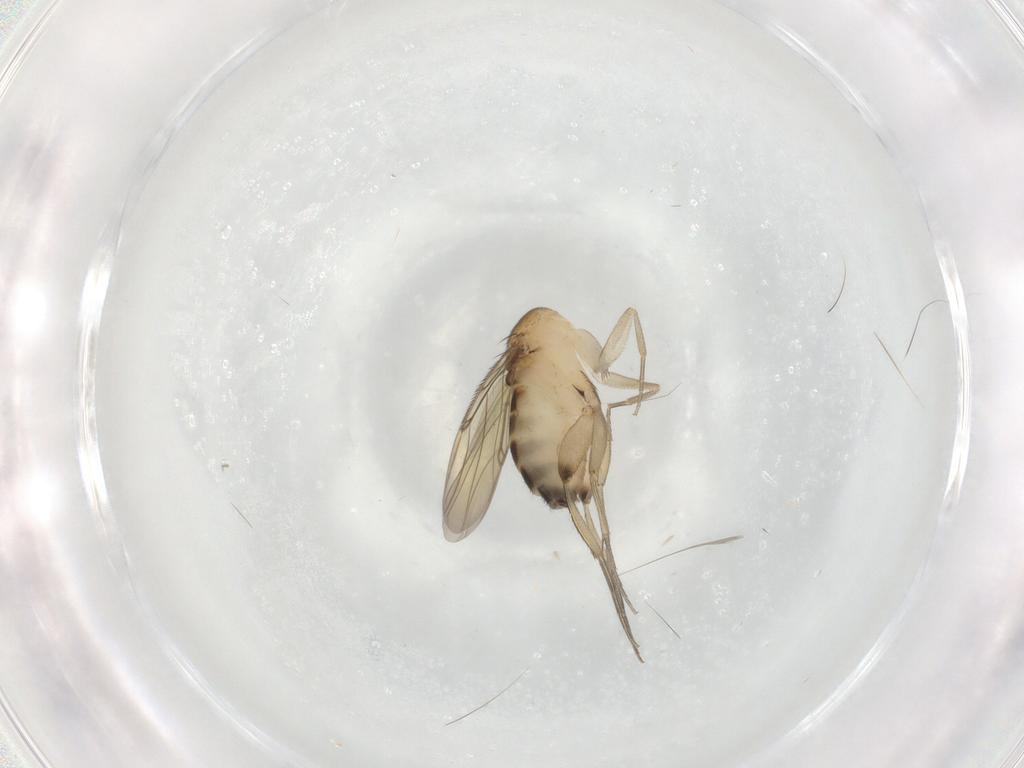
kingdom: Animalia
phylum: Arthropoda
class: Insecta
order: Diptera
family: Phoridae
